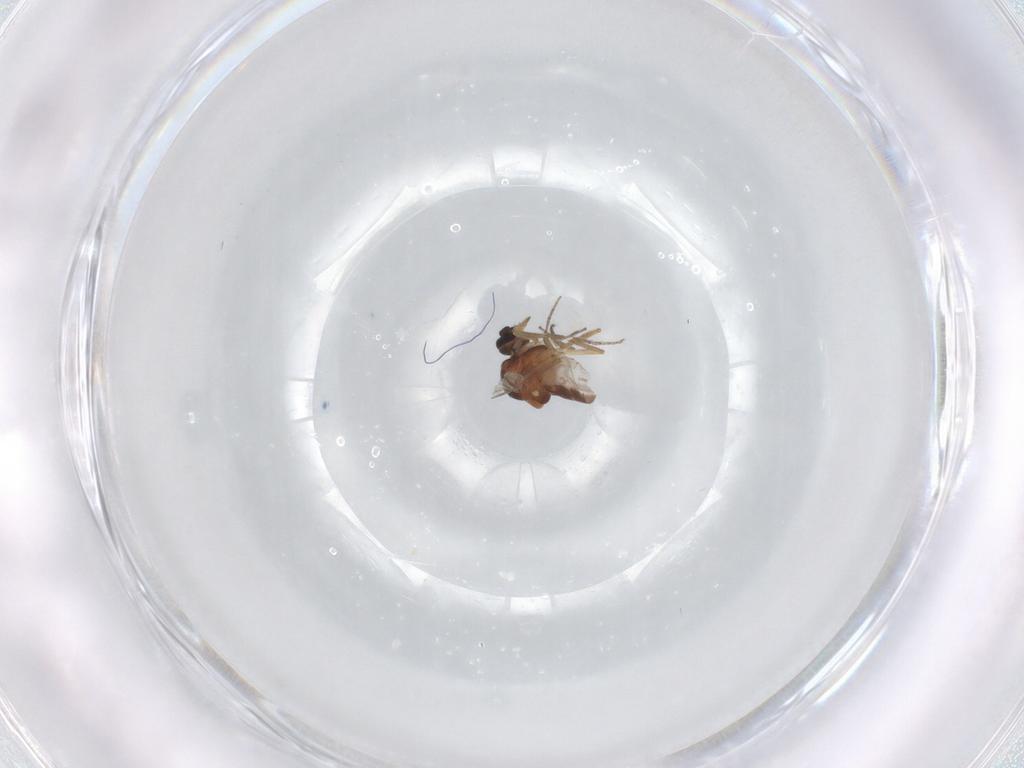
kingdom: Animalia
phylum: Arthropoda
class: Insecta
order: Diptera
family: Ceratopogonidae
